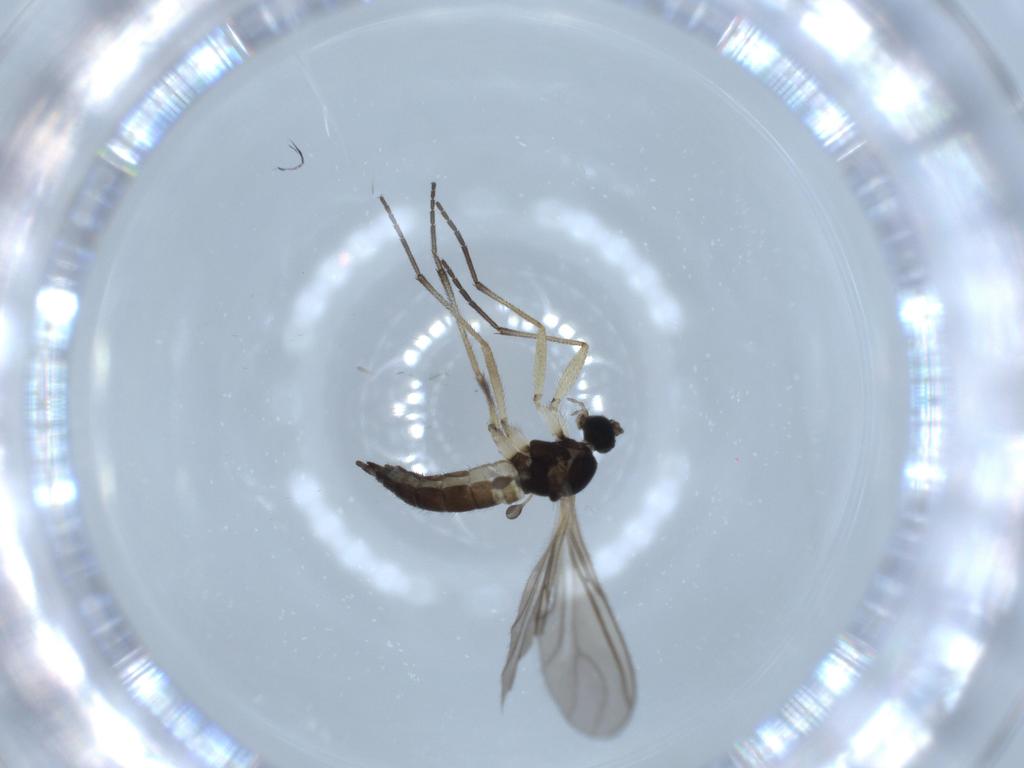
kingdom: Animalia
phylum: Arthropoda
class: Insecta
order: Diptera
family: Sciaridae
